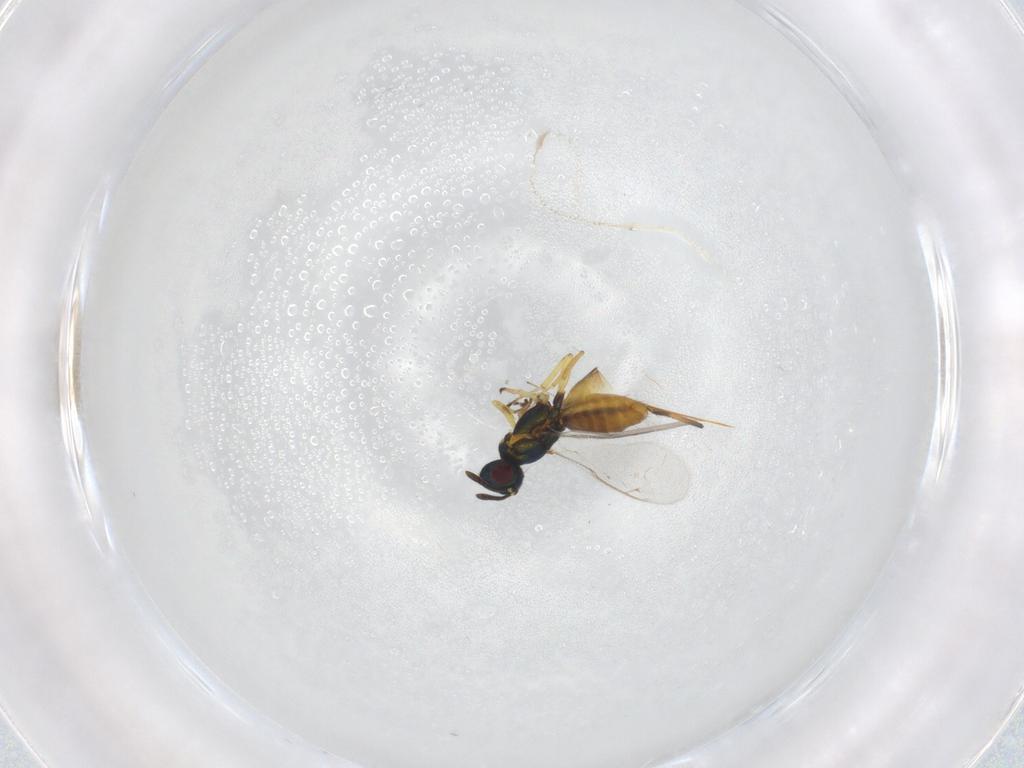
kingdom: Animalia
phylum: Arthropoda
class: Insecta
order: Hymenoptera
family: Eupelmidae
